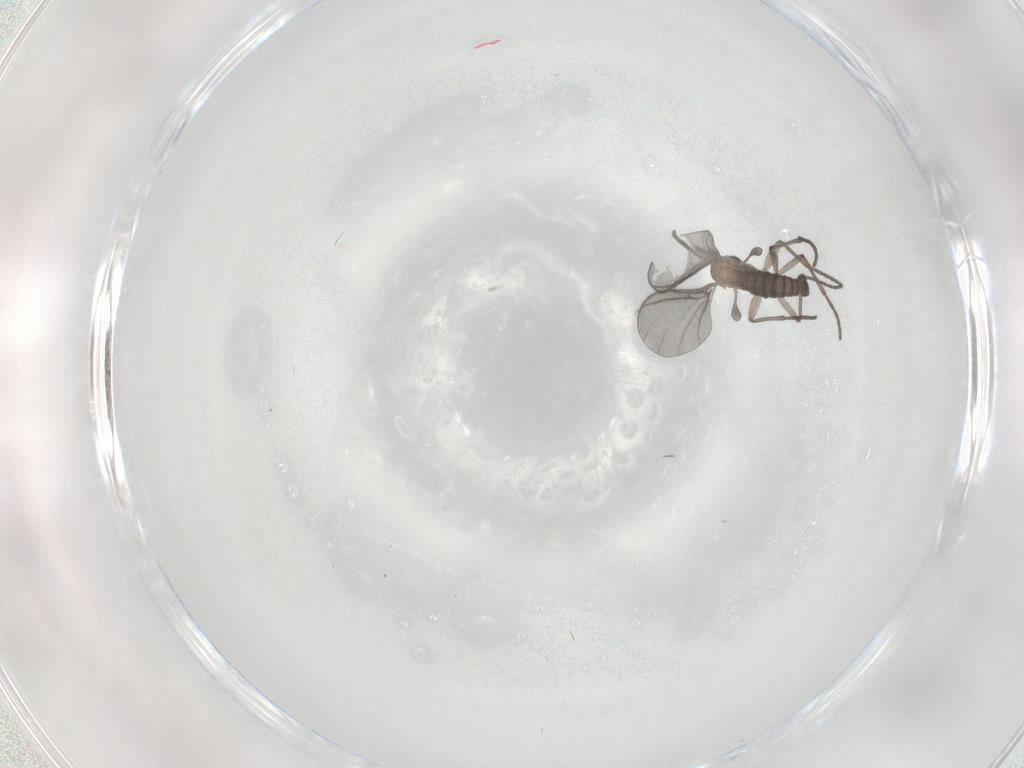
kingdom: Animalia
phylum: Arthropoda
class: Insecta
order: Diptera
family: Sciaridae
